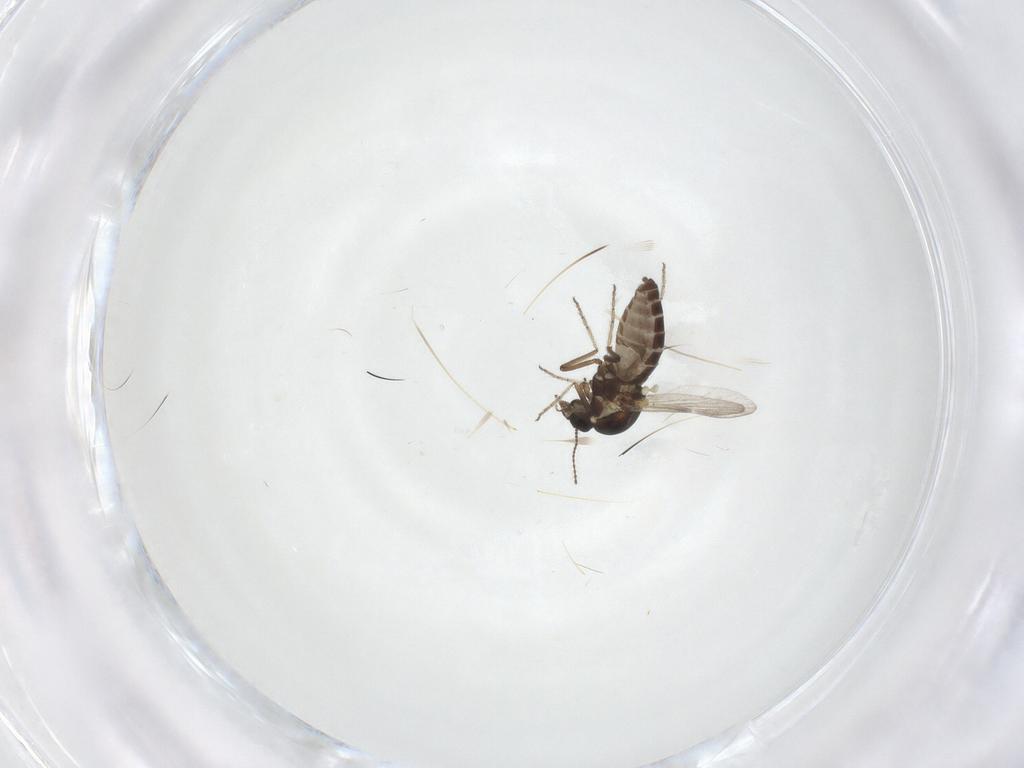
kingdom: Animalia
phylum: Arthropoda
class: Insecta
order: Diptera
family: Ceratopogonidae
